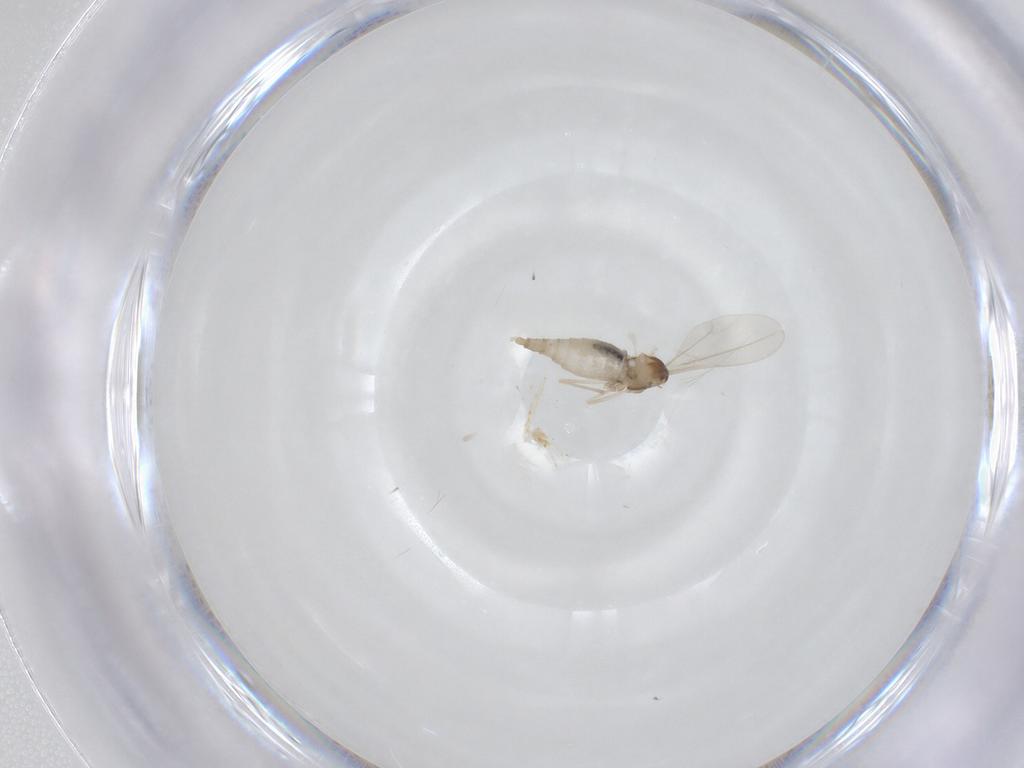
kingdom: Animalia
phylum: Arthropoda
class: Insecta
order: Diptera
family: Cecidomyiidae
